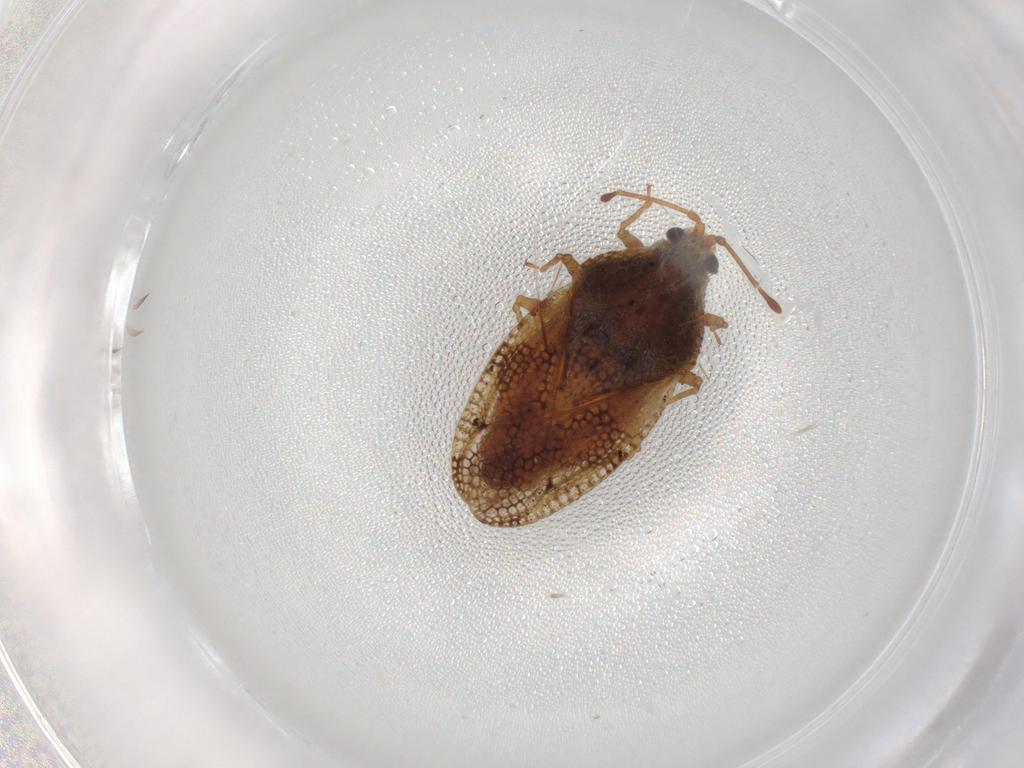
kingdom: Animalia
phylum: Arthropoda
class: Insecta
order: Hemiptera
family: Tingidae
